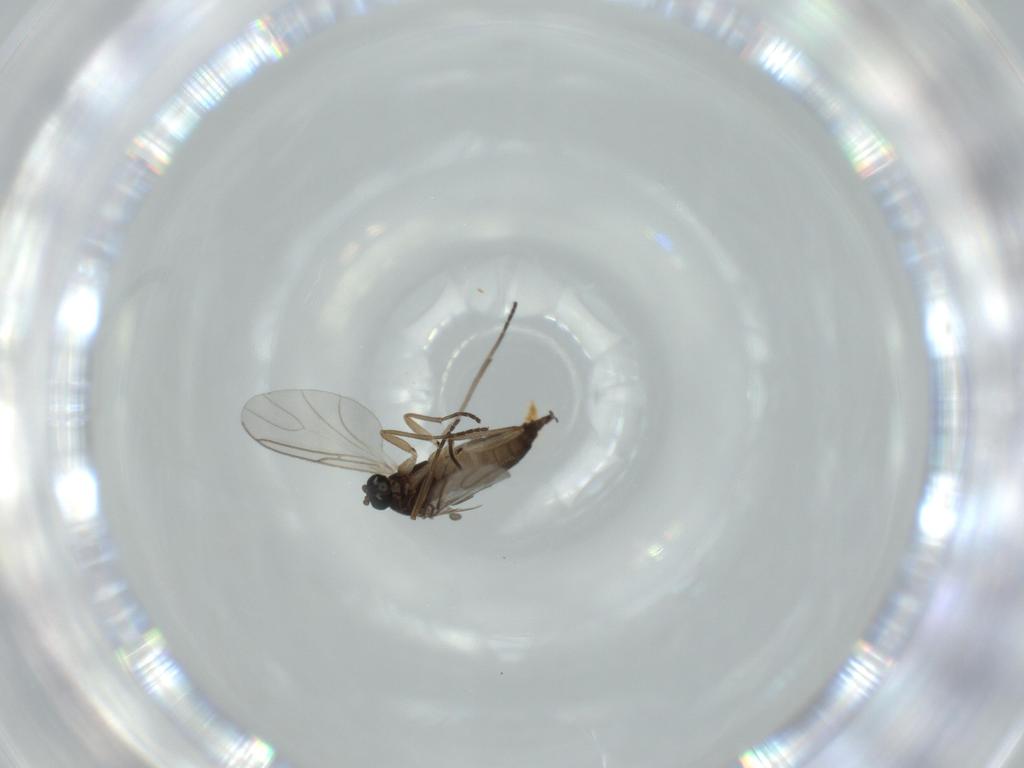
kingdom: Animalia
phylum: Arthropoda
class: Insecta
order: Diptera
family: Sciaridae
